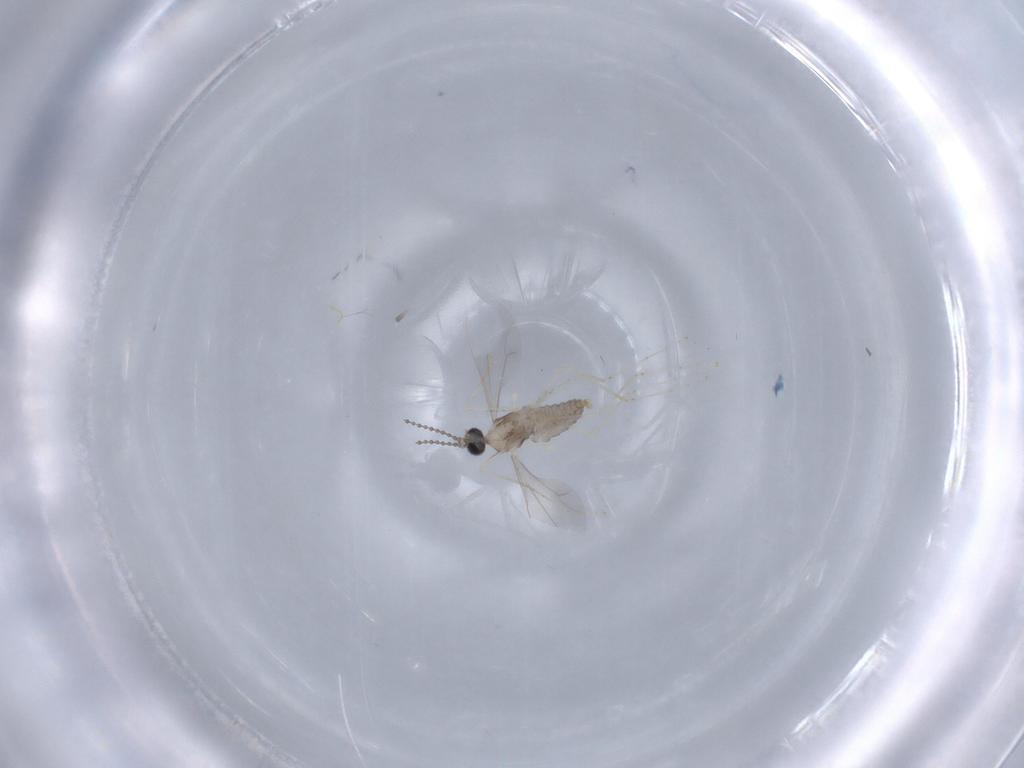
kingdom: Animalia
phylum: Arthropoda
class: Insecta
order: Diptera
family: Cecidomyiidae
